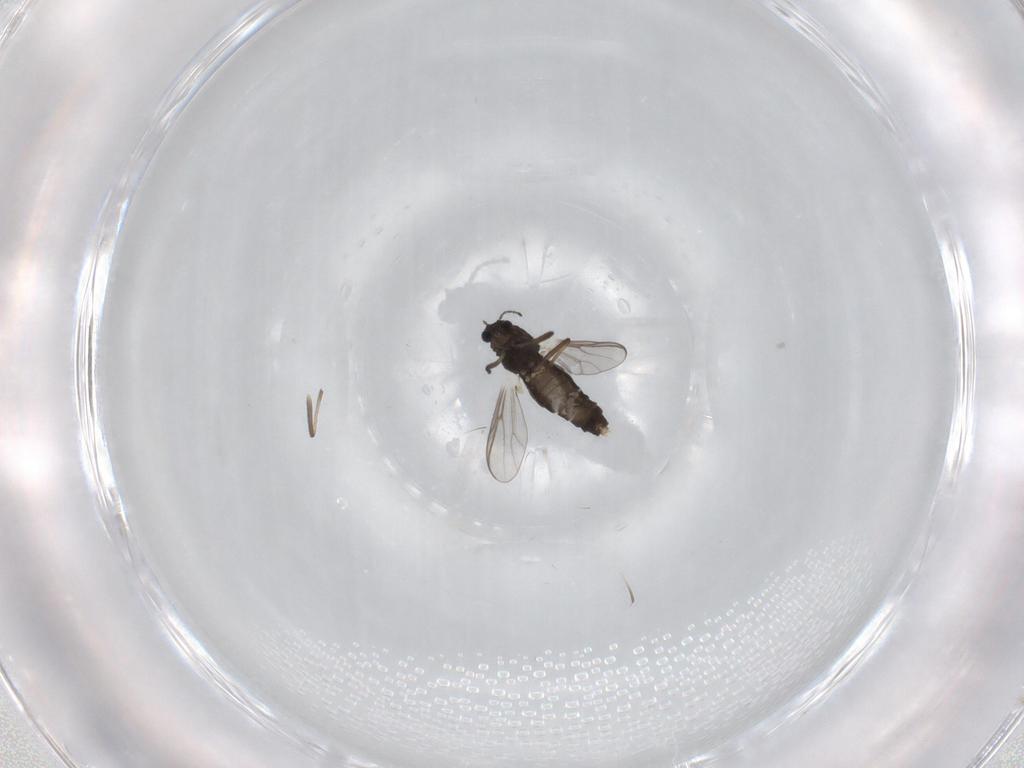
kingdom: Animalia
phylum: Arthropoda
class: Insecta
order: Diptera
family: Chironomidae
